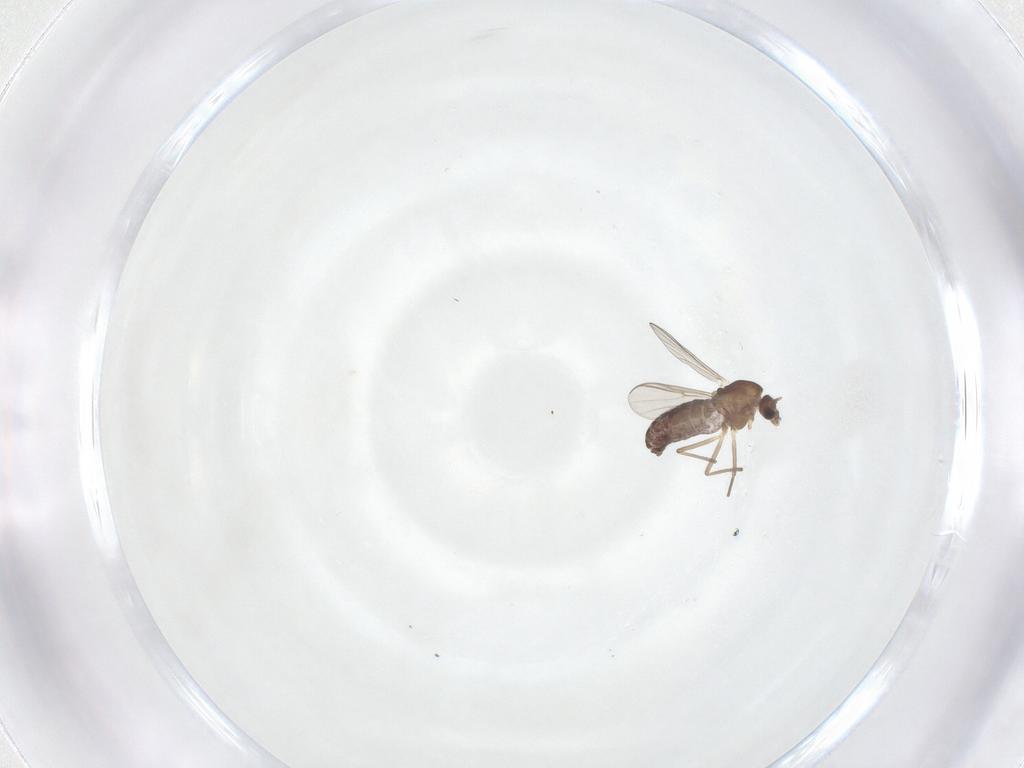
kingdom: Animalia
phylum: Arthropoda
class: Insecta
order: Diptera
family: Chironomidae
